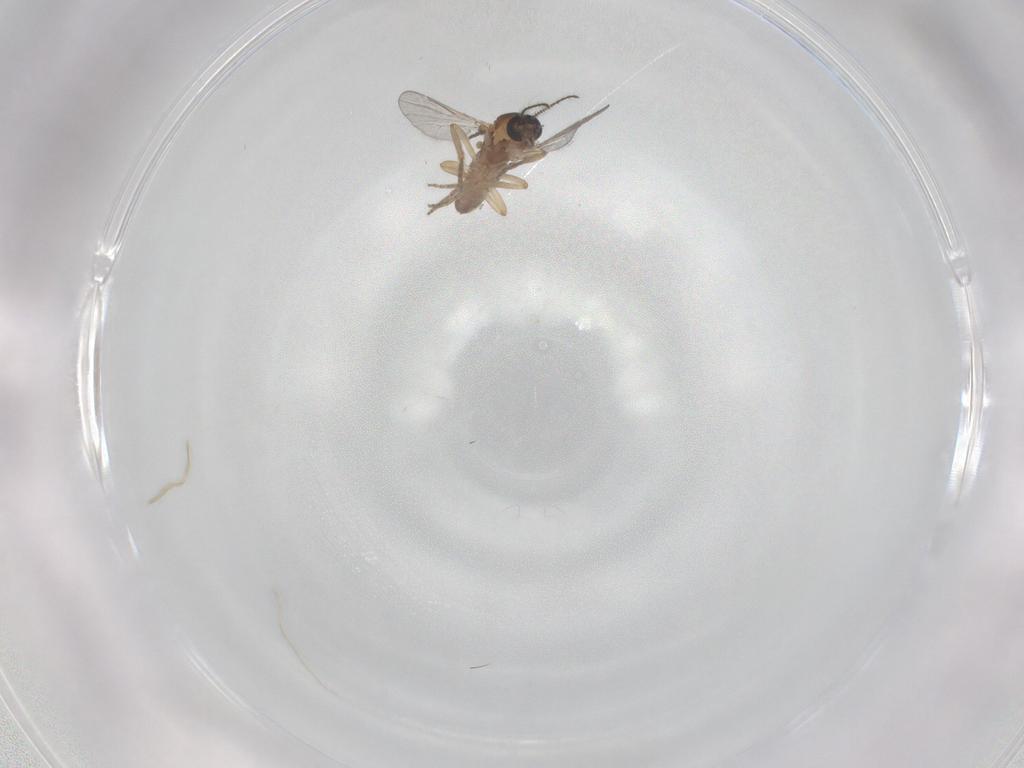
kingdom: Animalia
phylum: Arthropoda
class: Insecta
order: Diptera
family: Ceratopogonidae
